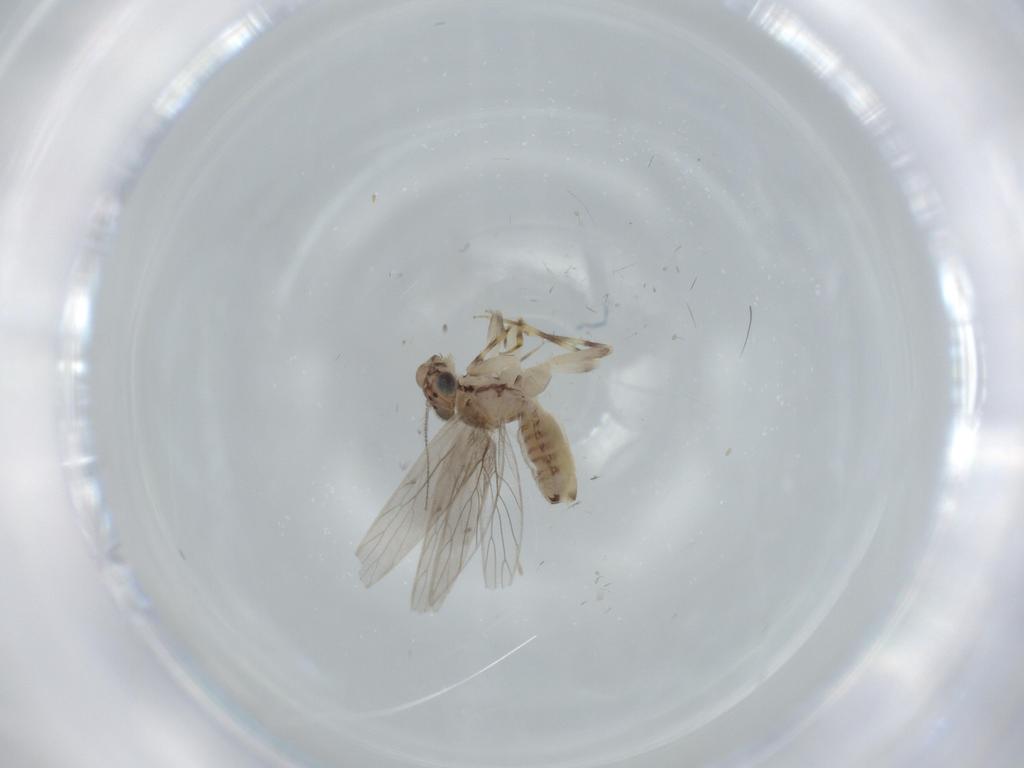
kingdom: Animalia
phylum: Arthropoda
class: Insecta
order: Psocodea
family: Lepidopsocidae
